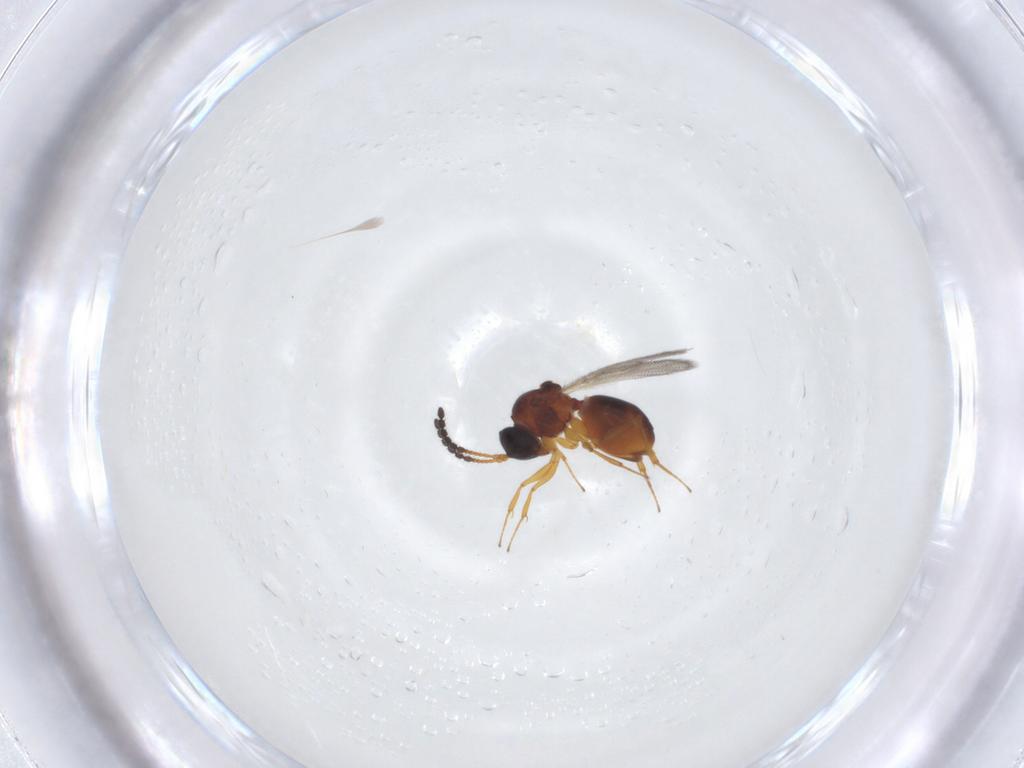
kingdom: Animalia
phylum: Arthropoda
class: Insecta
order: Hymenoptera
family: Figitidae
